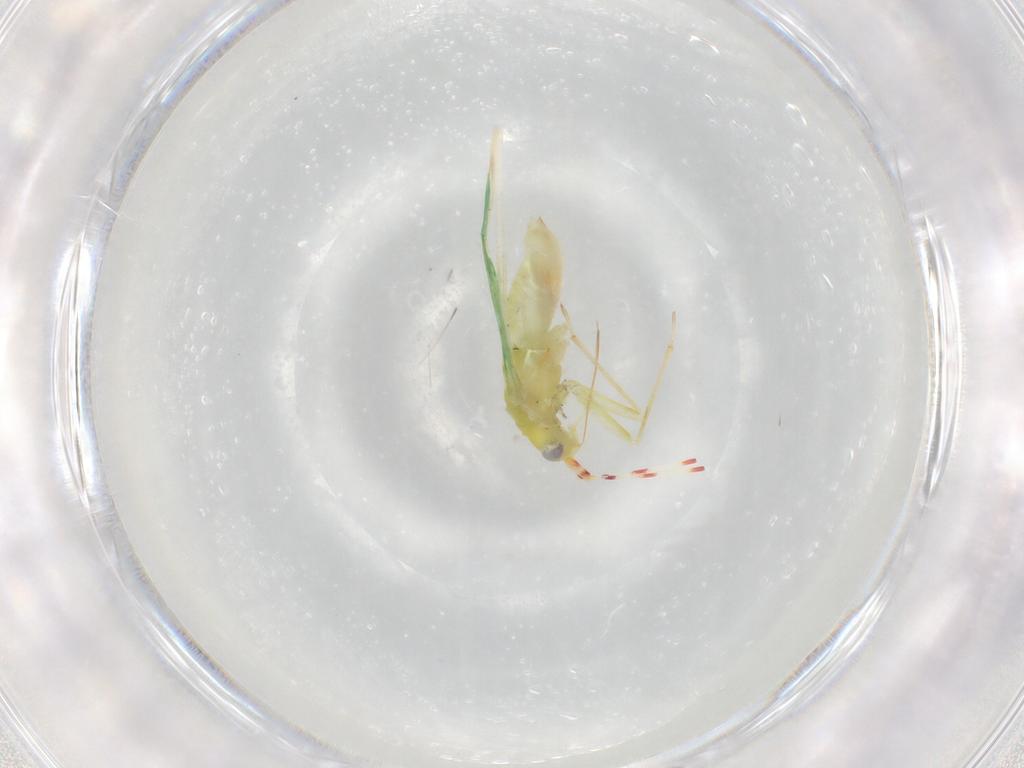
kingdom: Animalia
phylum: Arthropoda
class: Insecta
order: Hemiptera
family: Miridae
